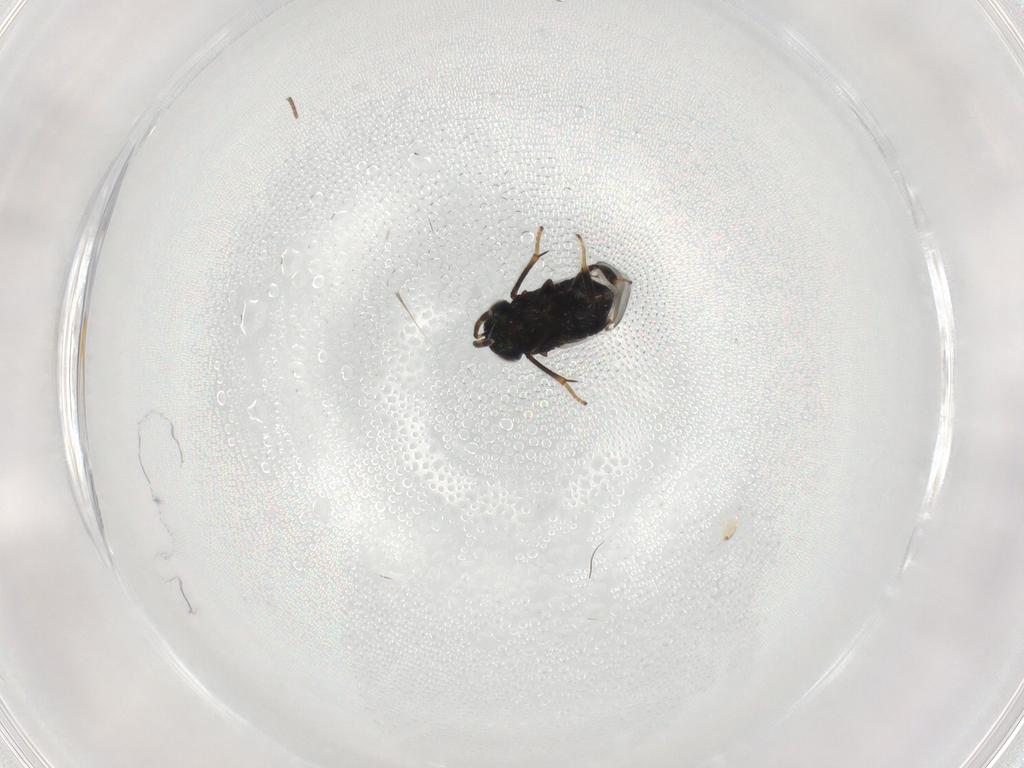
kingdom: Animalia
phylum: Arthropoda
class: Insecta
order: Hymenoptera
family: Signiphoridae
